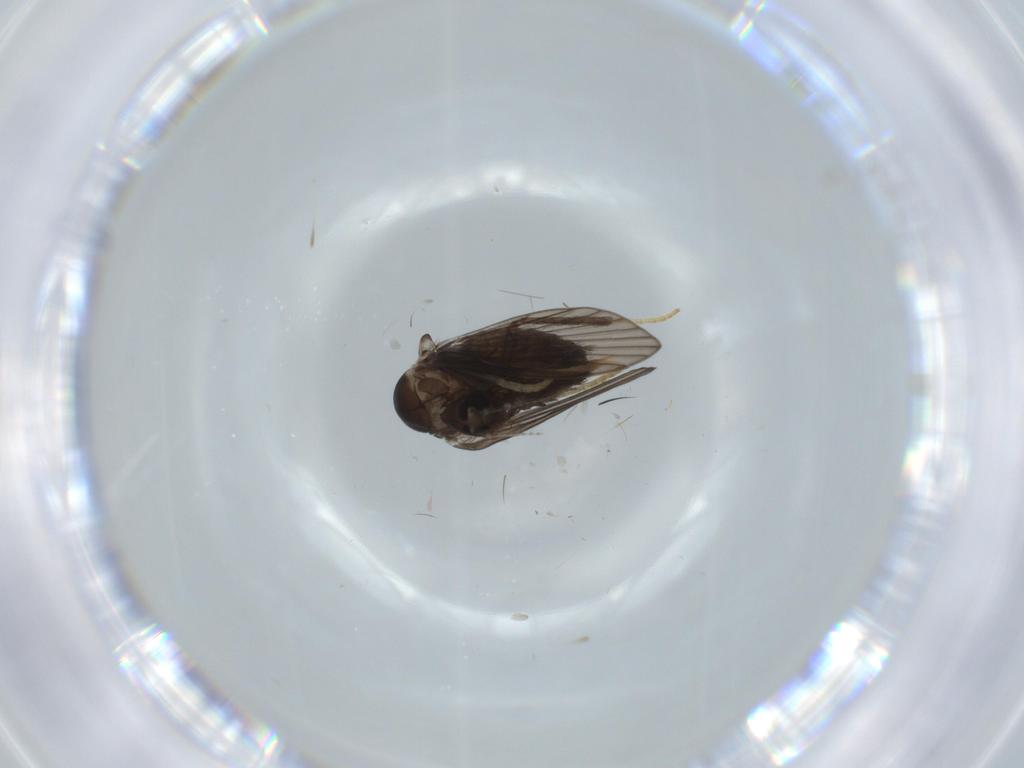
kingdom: Animalia
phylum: Arthropoda
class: Insecta
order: Diptera
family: Psychodidae
